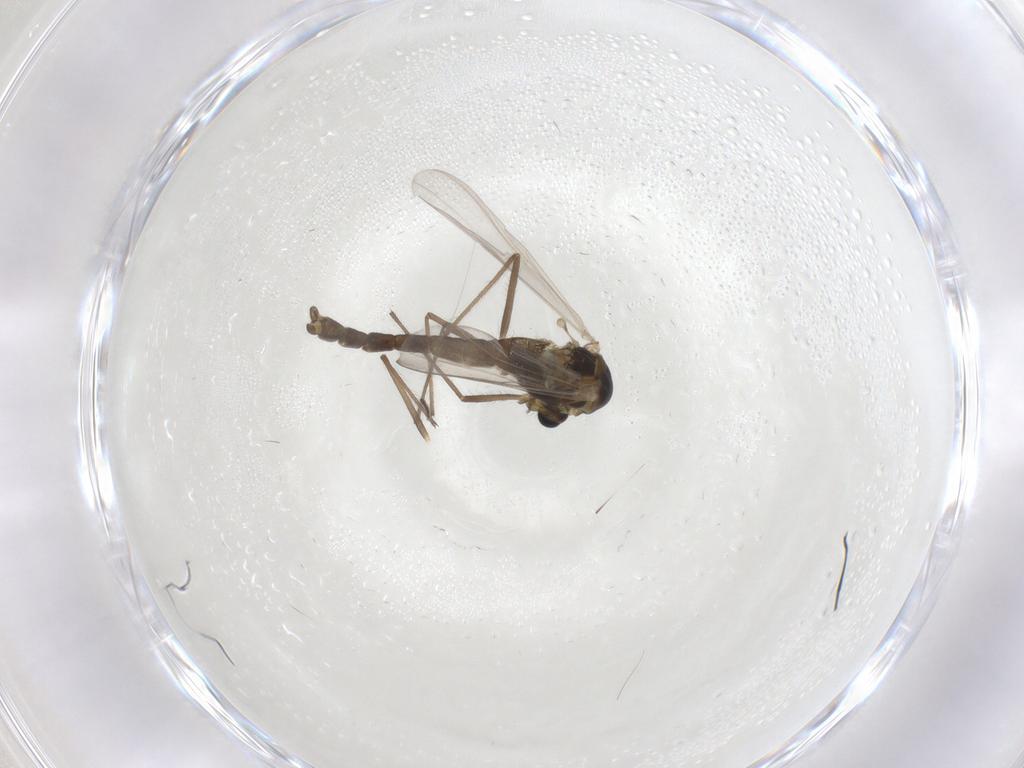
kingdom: Animalia
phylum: Arthropoda
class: Insecta
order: Diptera
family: Chironomidae
